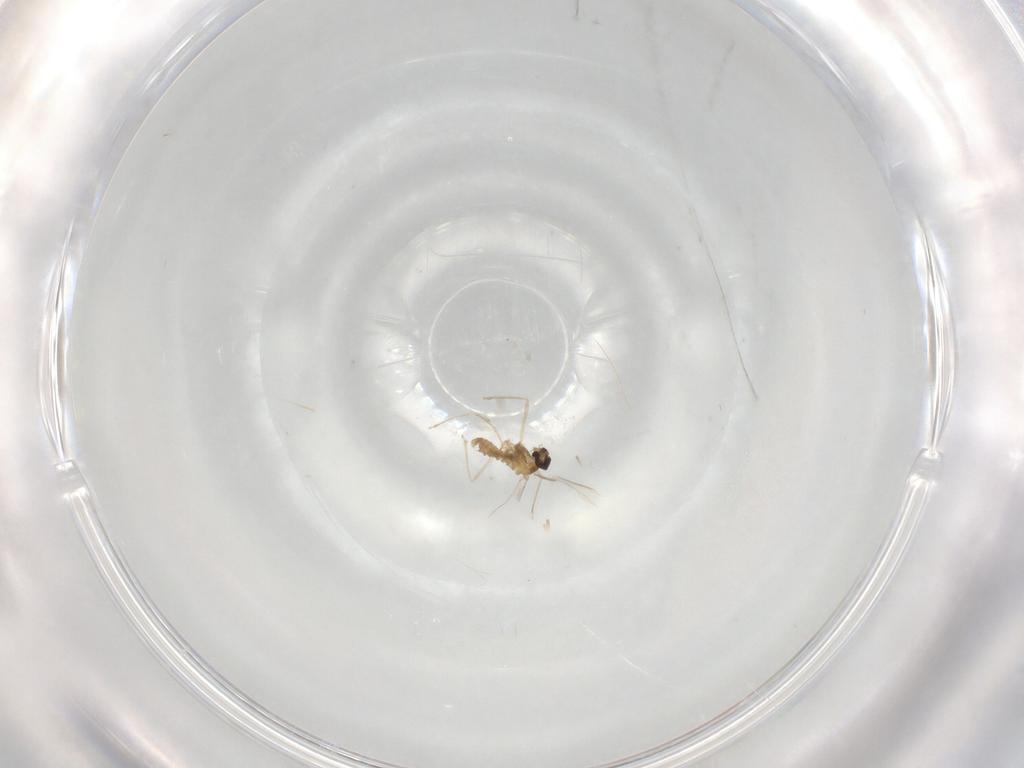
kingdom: Animalia
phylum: Arthropoda
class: Insecta
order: Diptera
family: Cecidomyiidae
